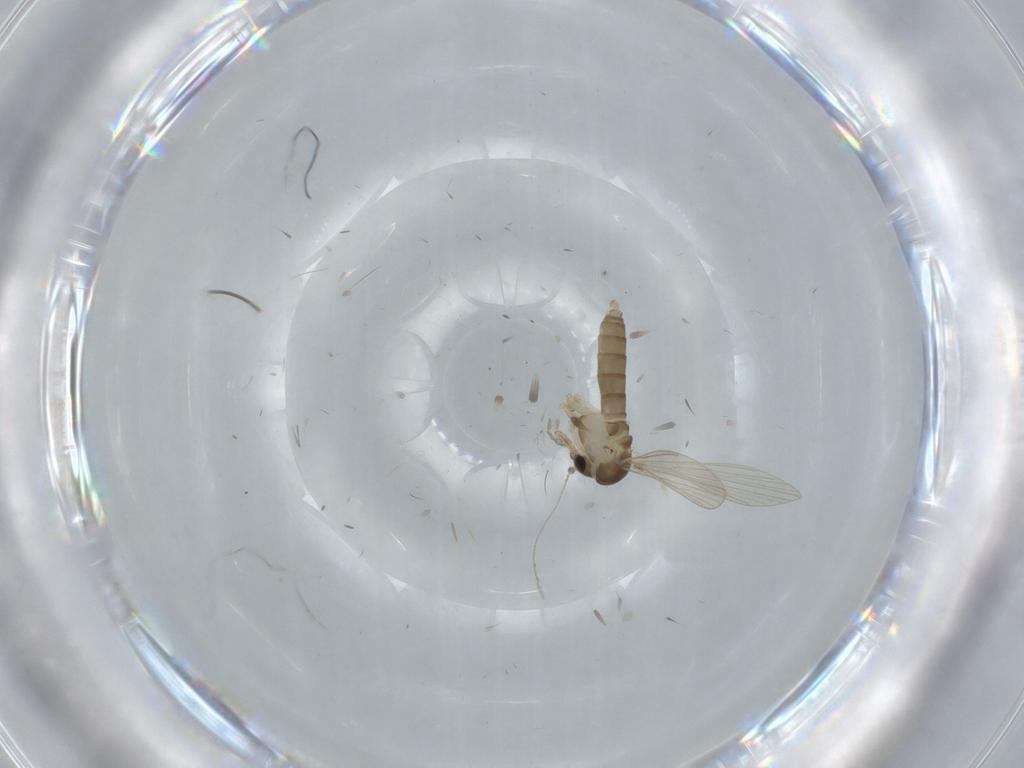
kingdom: Animalia
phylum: Arthropoda
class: Insecta
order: Diptera
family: Psychodidae
